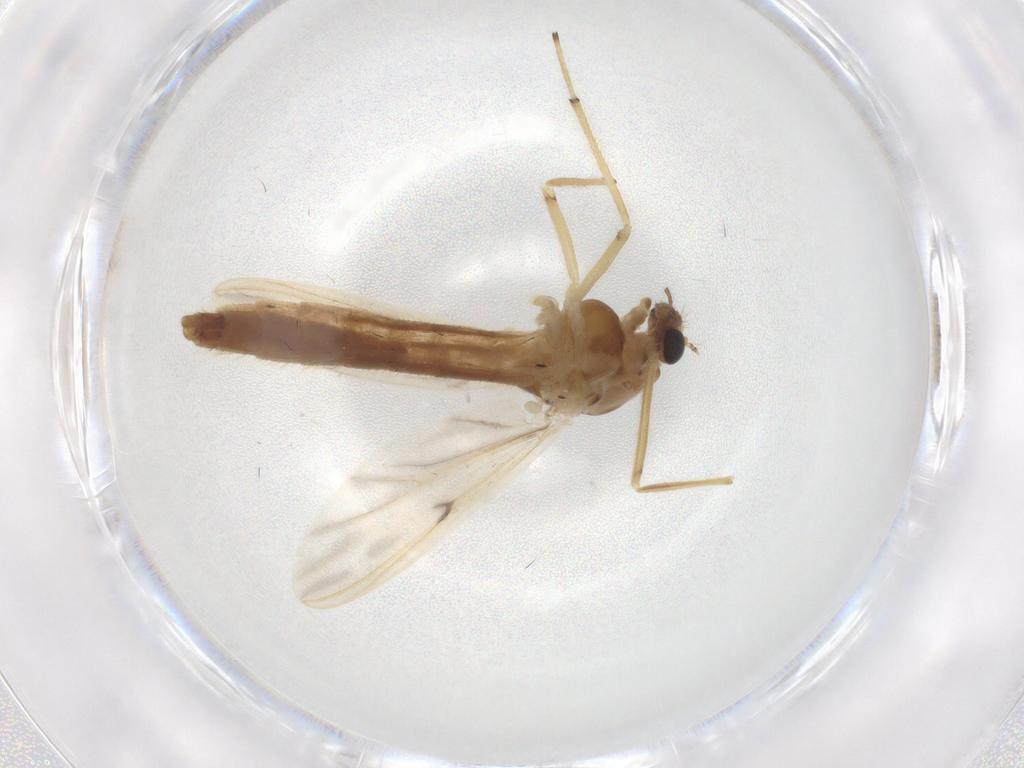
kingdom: Animalia
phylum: Arthropoda
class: Insecta
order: Diptera
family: Chironomidae
